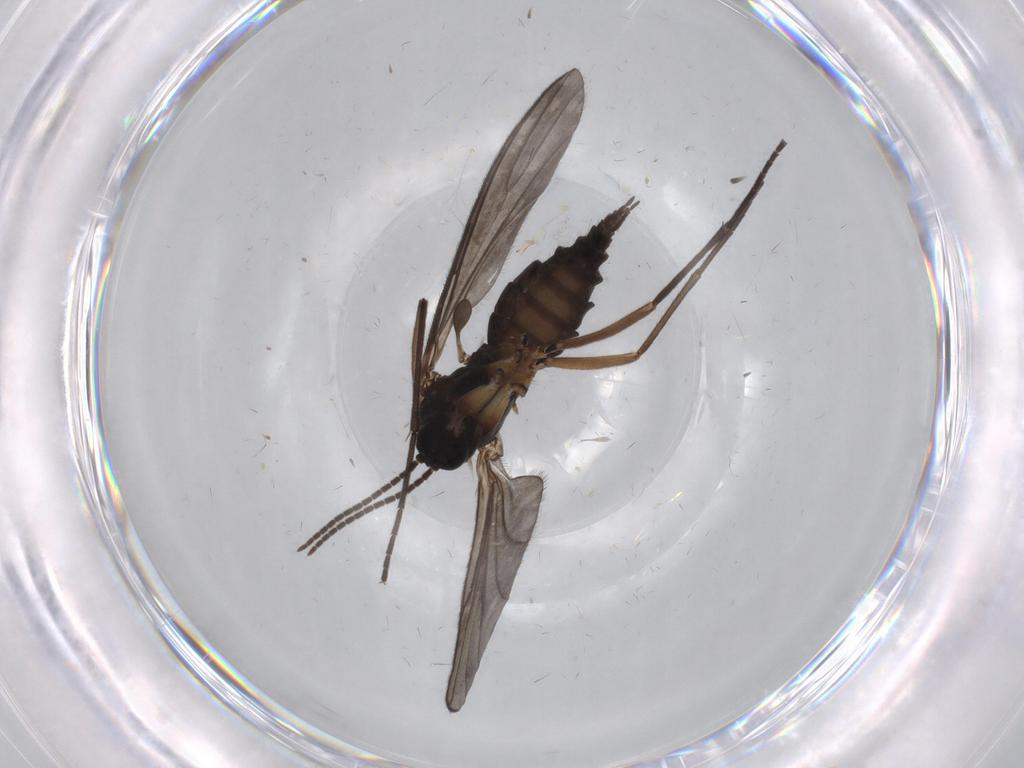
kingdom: Animalia
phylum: Arthropoda
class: Insecta
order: Diptera
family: Sciaridae
